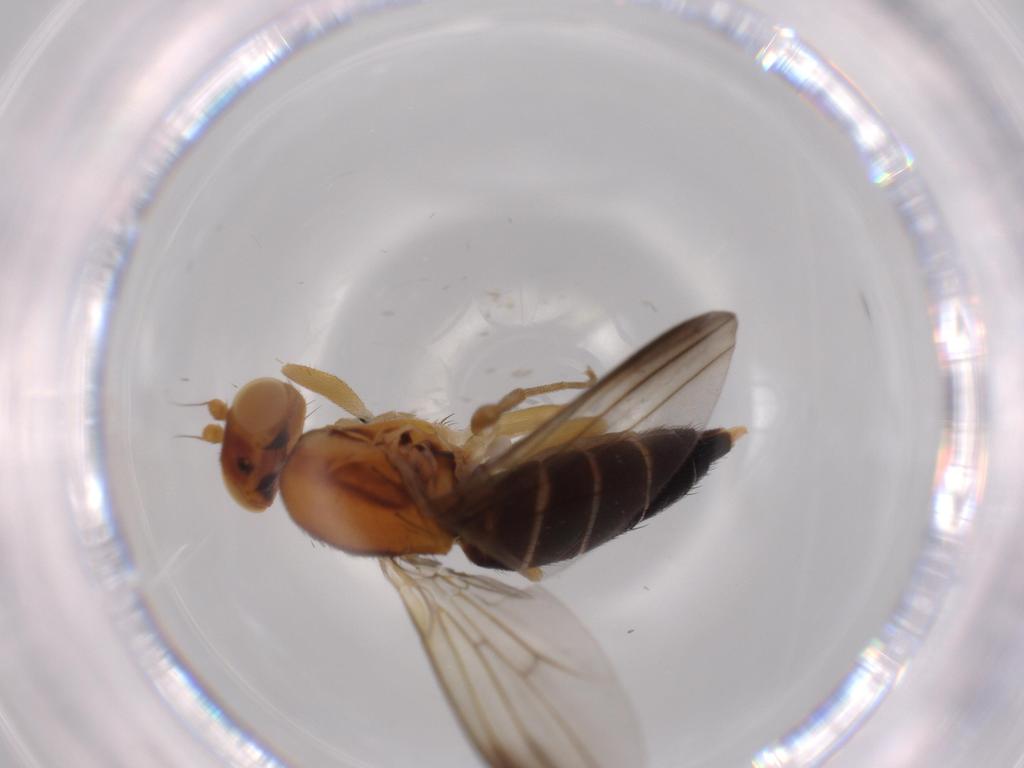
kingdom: Animalia
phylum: Arthropoda
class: Insecta
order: Diptera
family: Clusiidae
